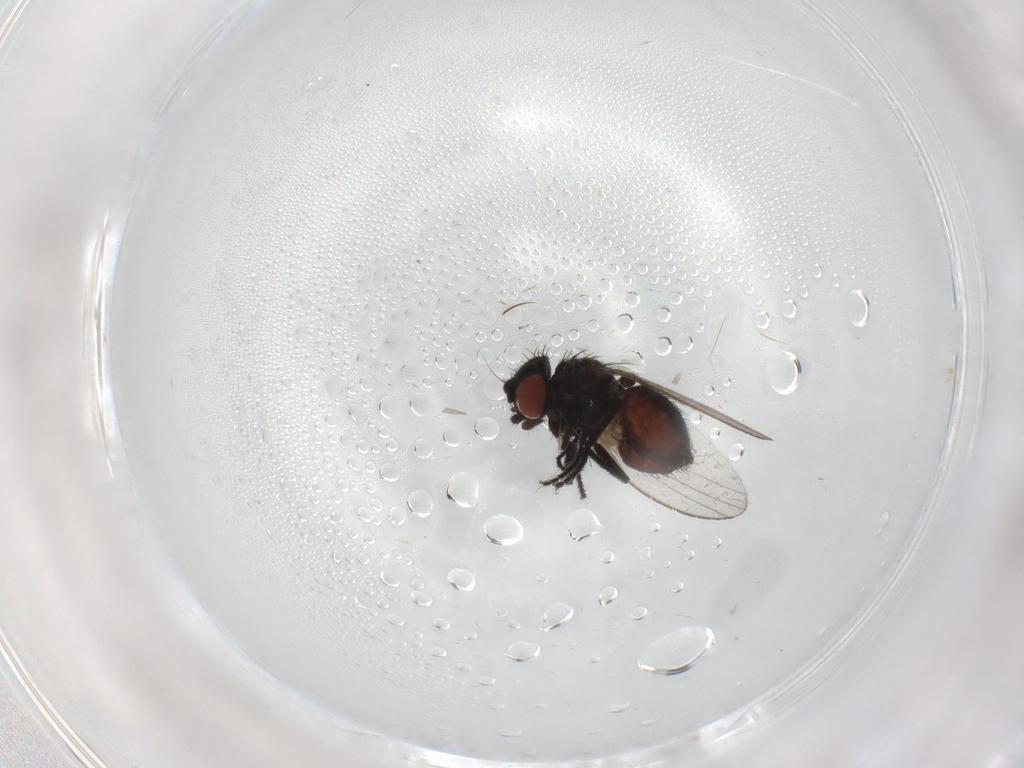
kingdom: Animalia
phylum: Arthropoda
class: Insecta
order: Diptera
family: Milichiidae
